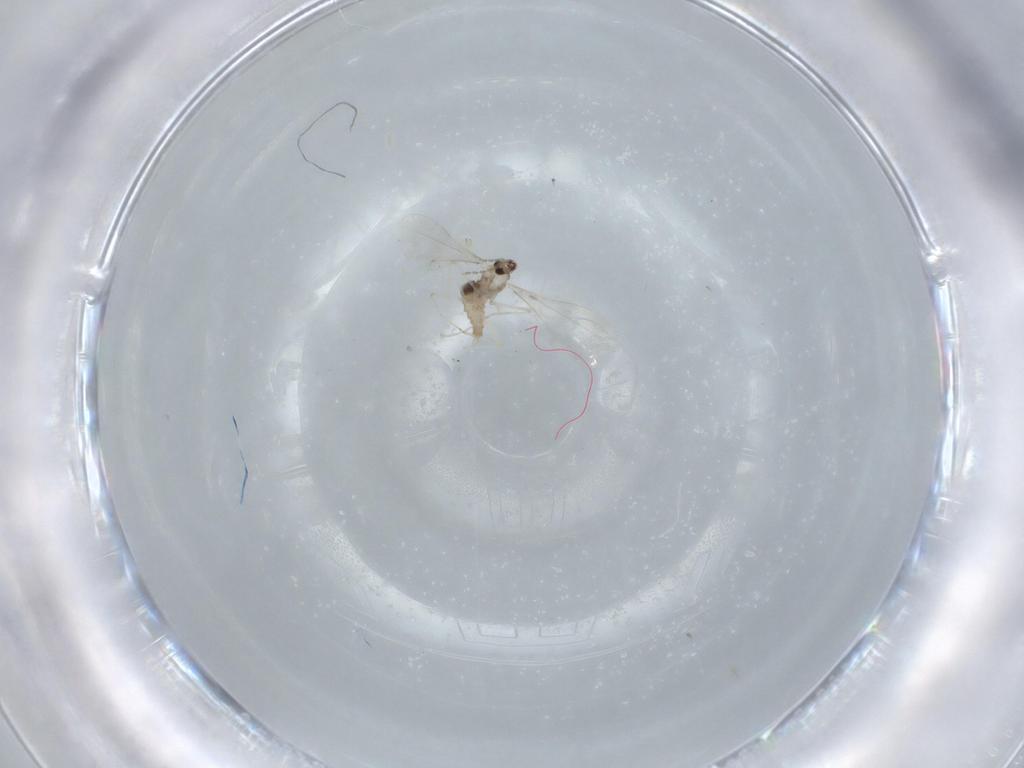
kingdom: Animalia
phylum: Arthropoda
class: Insecta
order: Diptera
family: Cecidomyiidae
